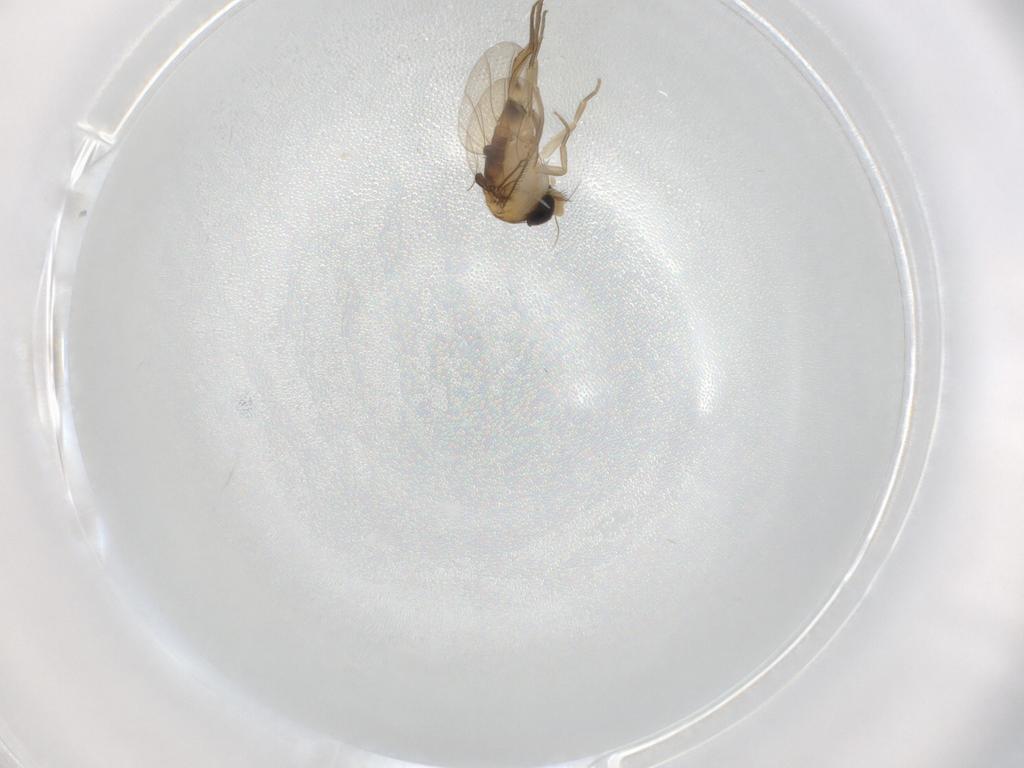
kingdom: Animalia
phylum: Arthropoda
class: Insecta
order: Diptera
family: Phoridae
